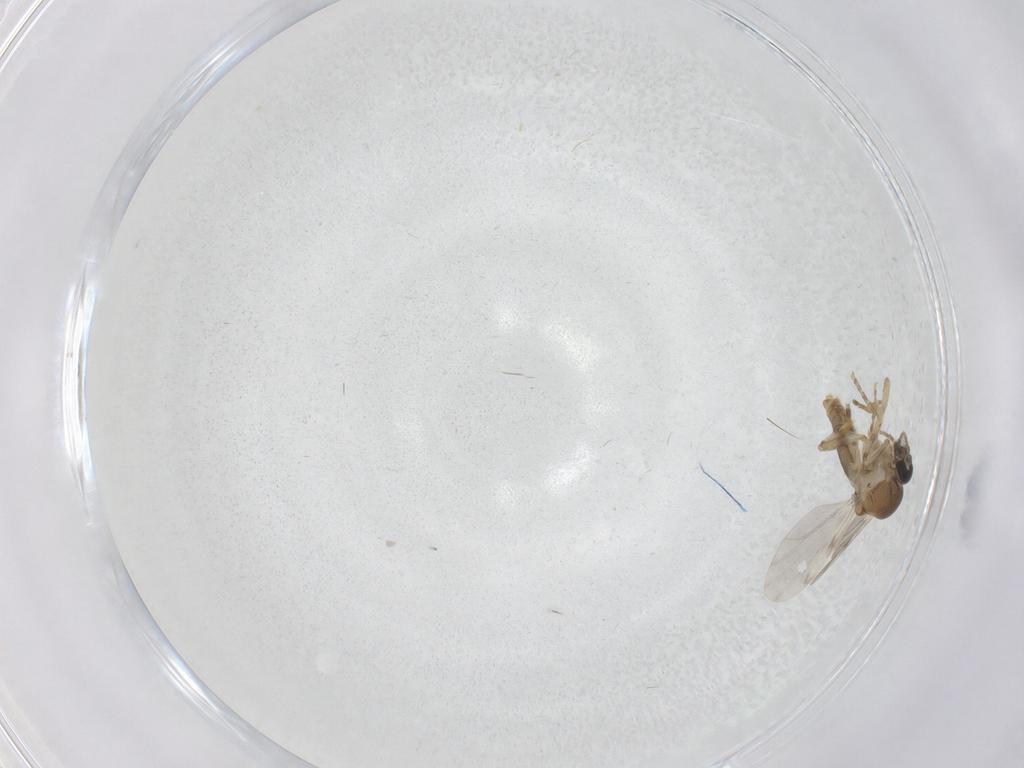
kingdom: Animalia
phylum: Arthropoda
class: Insecta
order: Diptera
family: Ceratopogonidae
